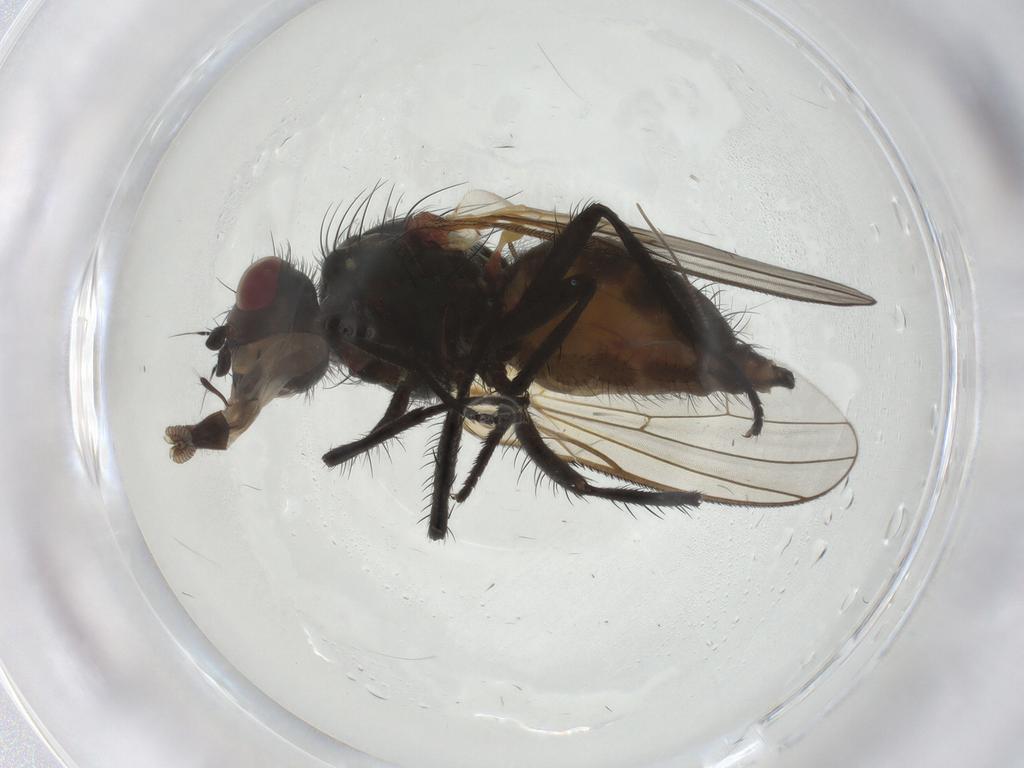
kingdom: Animalia
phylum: Arthropoda
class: Insecta
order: Diptera
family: Anthomyiidae
